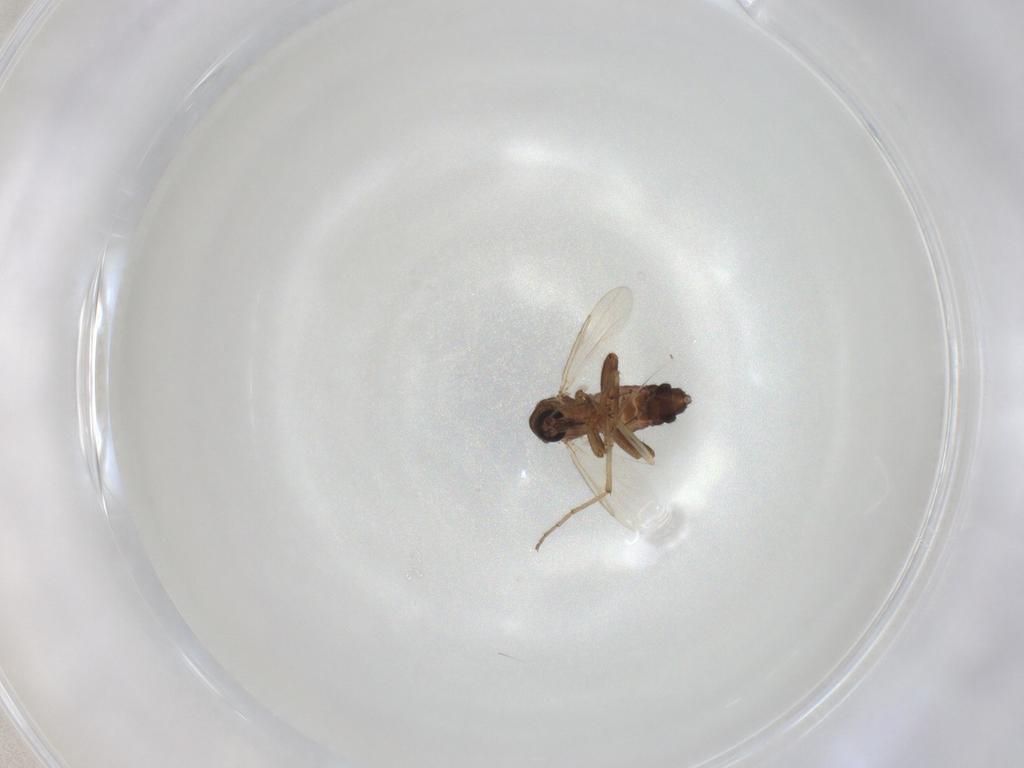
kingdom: Animalia
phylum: Arthropoda
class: Insecta
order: Diptera
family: Ceratopogonidae
